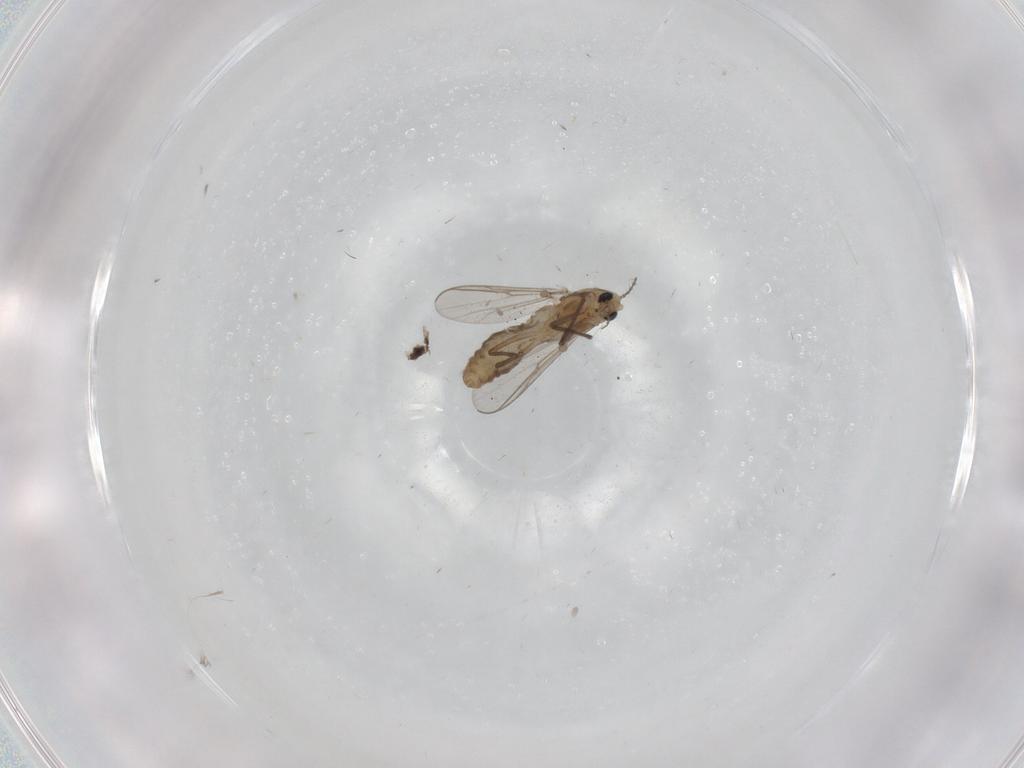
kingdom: Animalia
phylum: Arthropoda
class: Insecta
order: Diptera
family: Chironomidae
